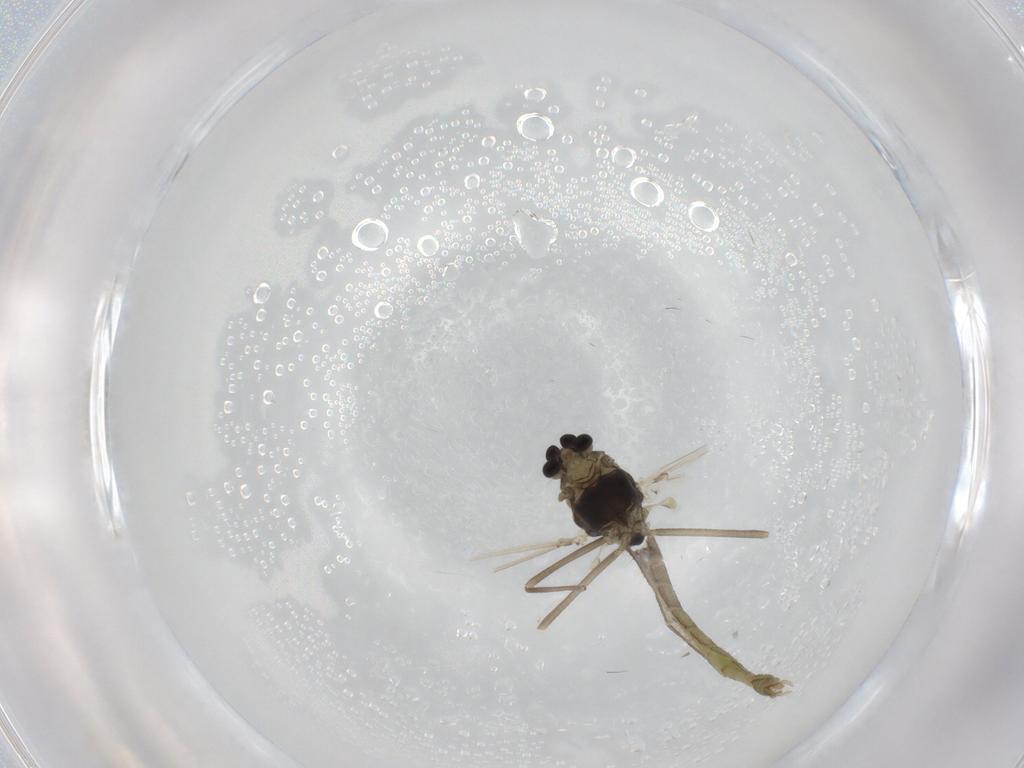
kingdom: Animalia
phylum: Arthropoda
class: Insecta
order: Diptera
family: Chironomidae
